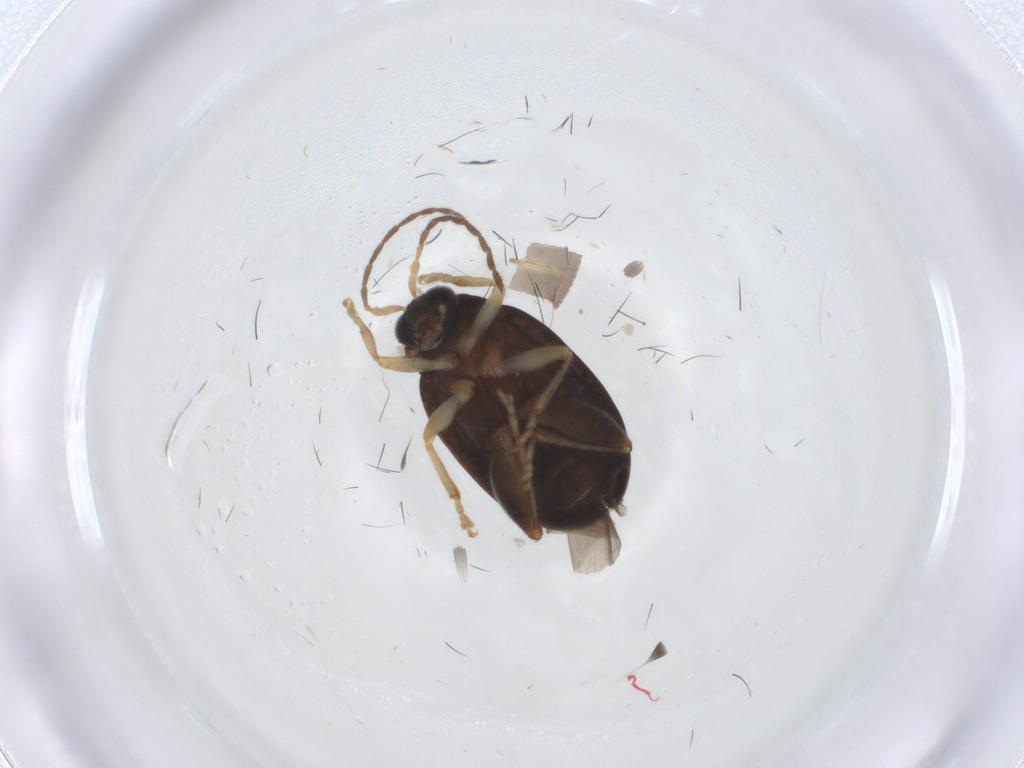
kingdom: Animalia
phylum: Arthropoda
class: Insecta
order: Coleoptera
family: Chrysomelidae
